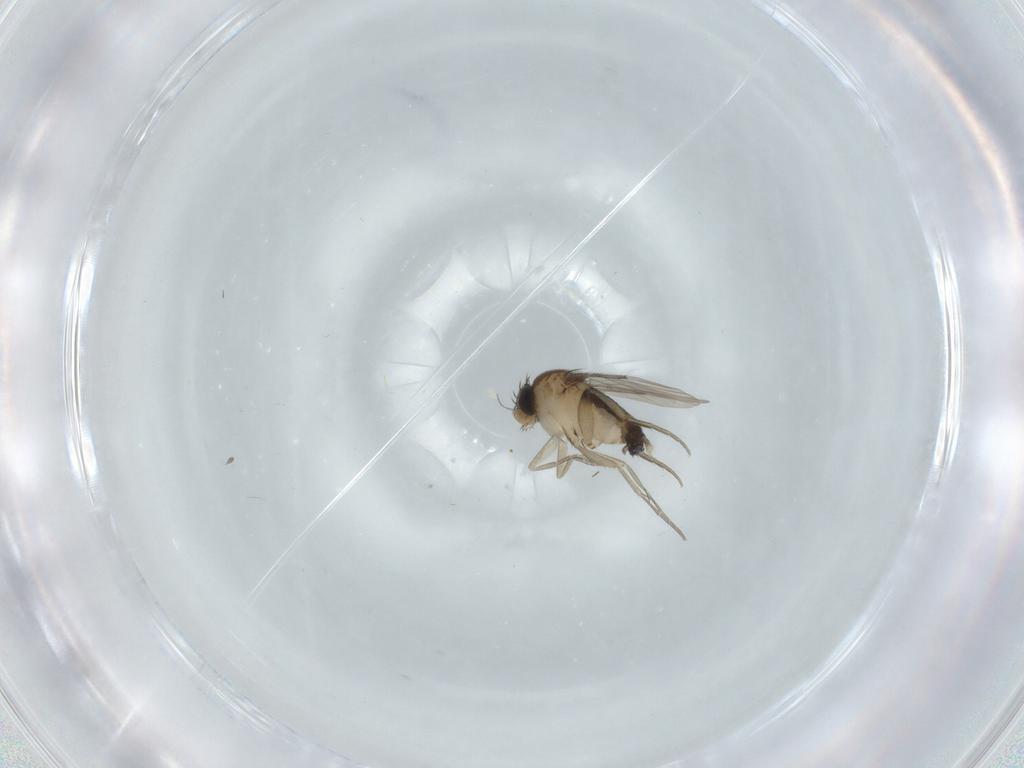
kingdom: Animalia
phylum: Arthropoda
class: Insecta
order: Diptera
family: Phoridae
